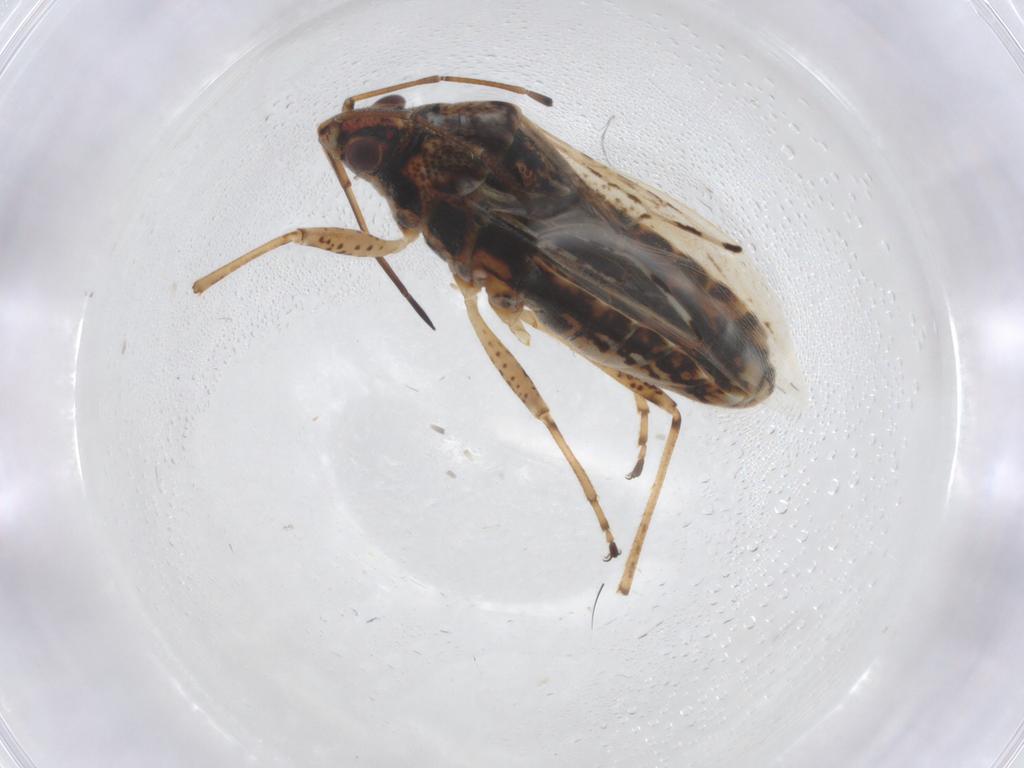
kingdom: Animalia
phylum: Arthropoda
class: Insecta
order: Hemiptera
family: Lygaeidae
